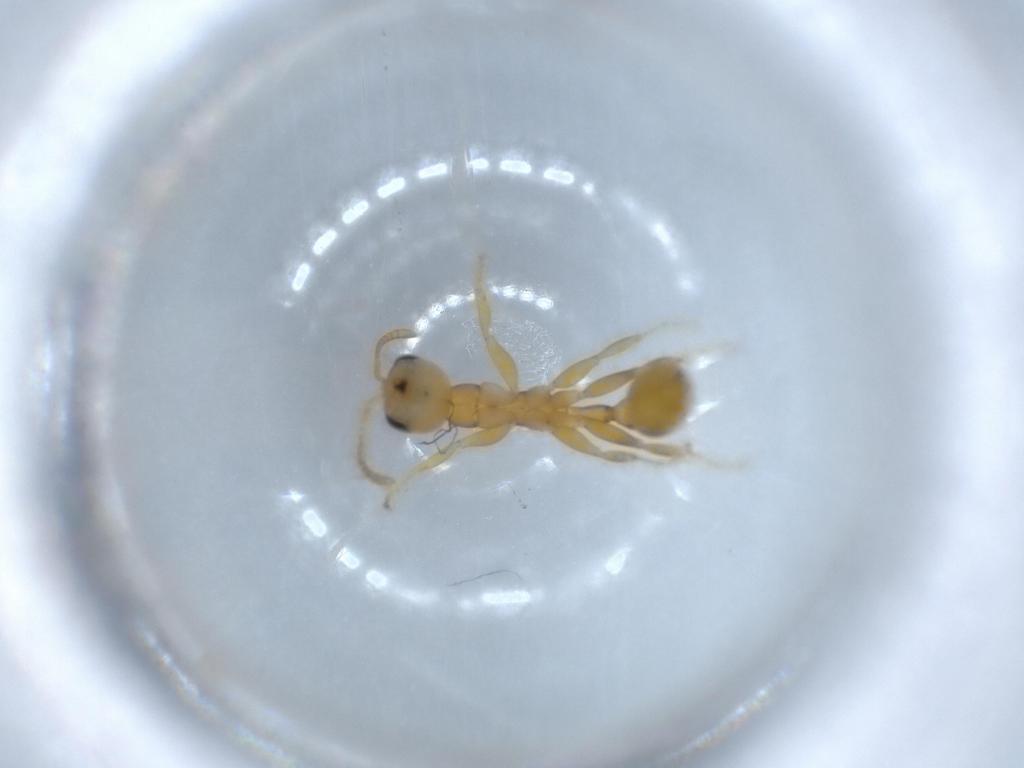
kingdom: Animalia
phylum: Arthropoda
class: Insecta
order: Hymenoptera
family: Formicidae
